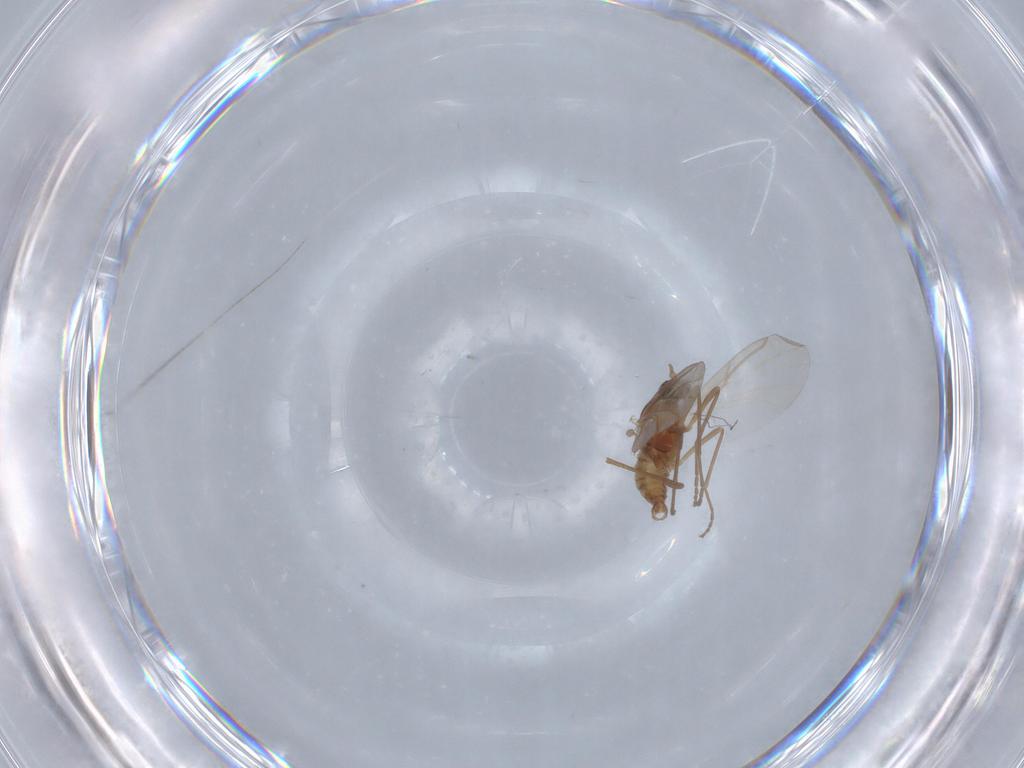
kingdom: Animalia
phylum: Arthropoda
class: Insecta
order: Diptera
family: Cecidomyiidae
